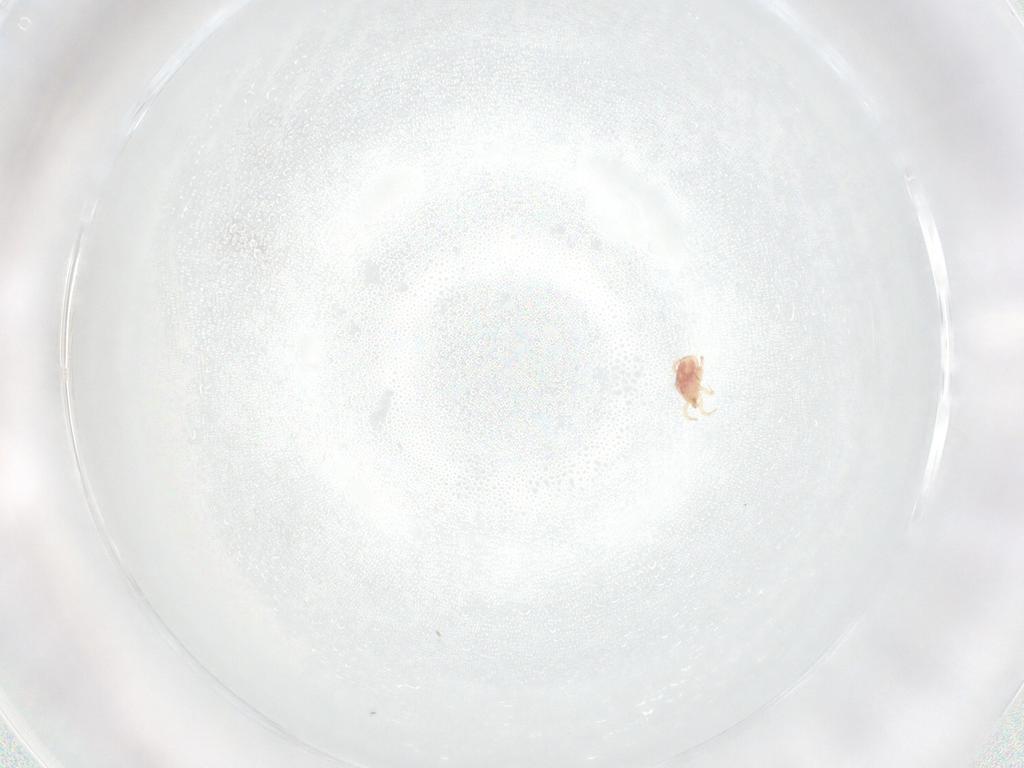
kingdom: Animalia
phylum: Arthropoda
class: Arachnida
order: Mesostigmata
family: Phytoseiidae
